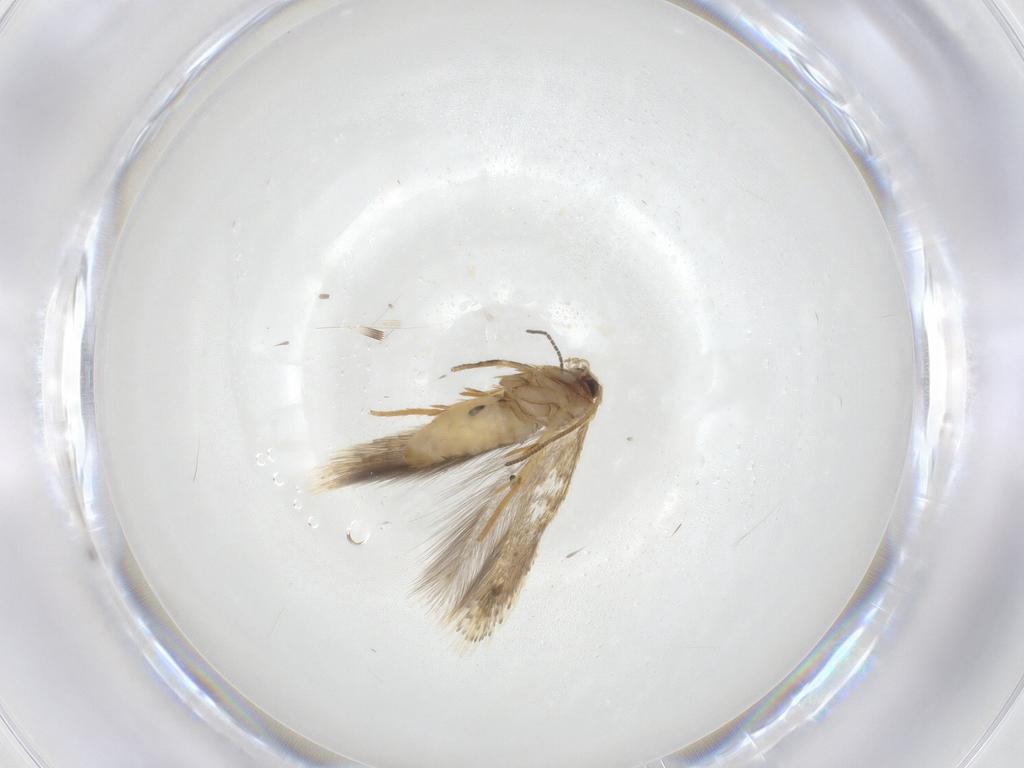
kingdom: Animalia
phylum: Arthropoda
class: Insecta
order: Lepidoptera
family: Nepticulidae
